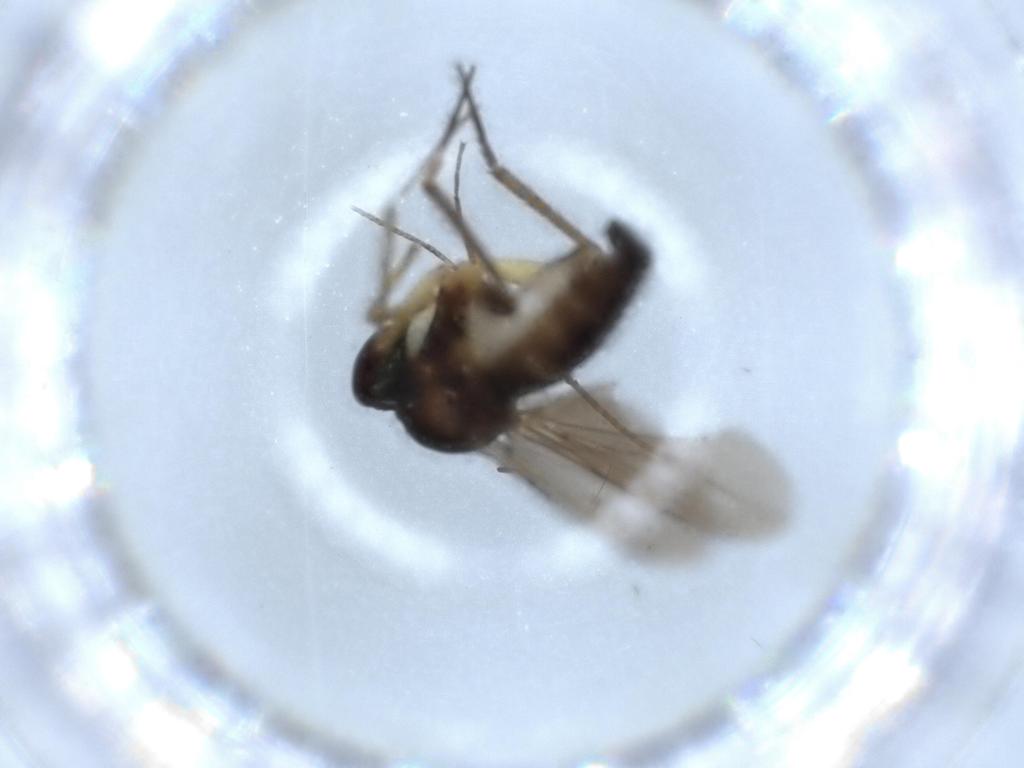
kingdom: Animalia
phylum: Arthropoda
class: Insecta
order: Diptera
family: Dolichopodidae
